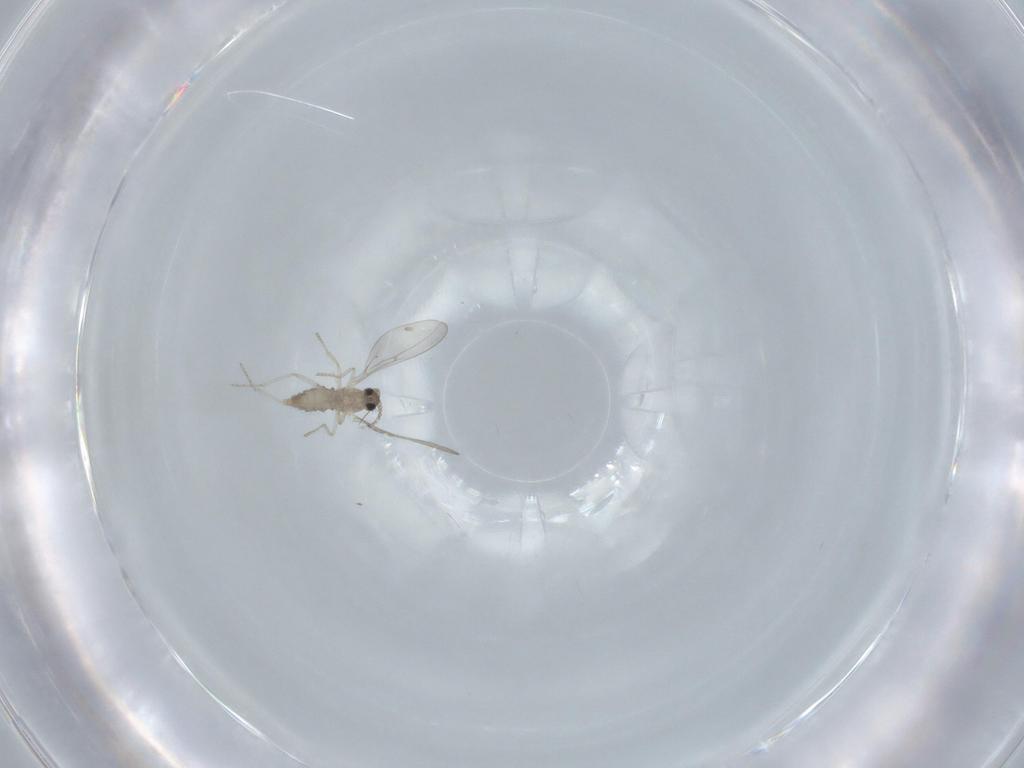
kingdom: Animalia
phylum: Arthropoda
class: Insecta
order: Diptera
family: Cecidomyiidae
